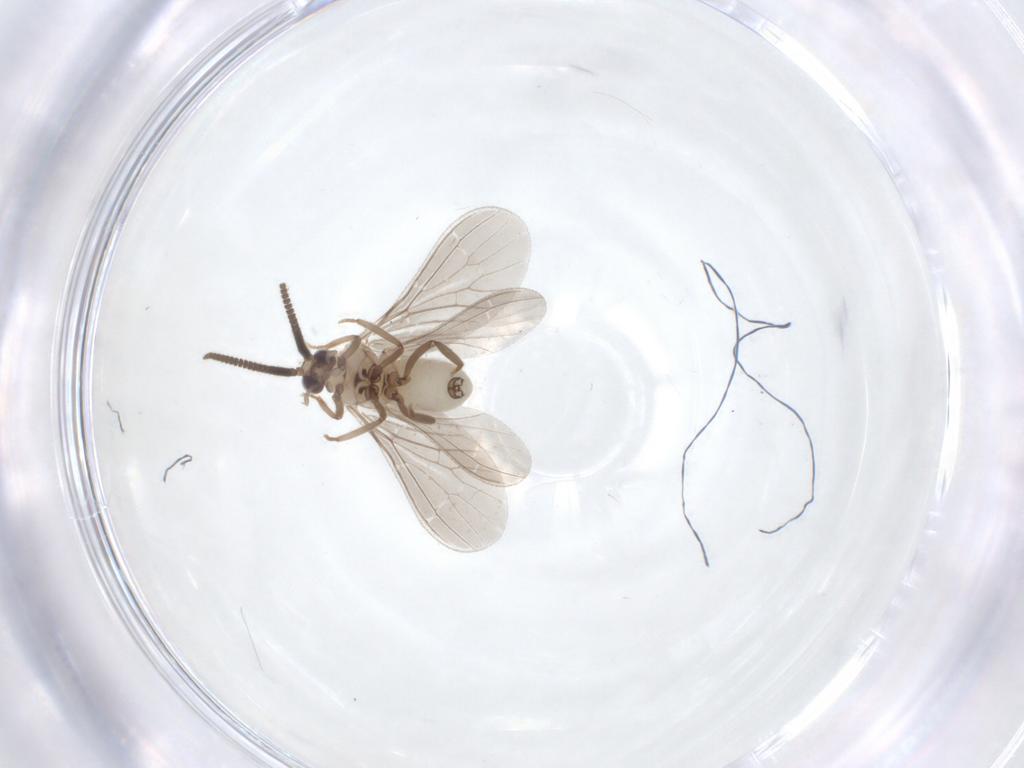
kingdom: Animalia
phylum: Arthropoda
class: Insecta
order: Neuroptera
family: Coniopterygidae
